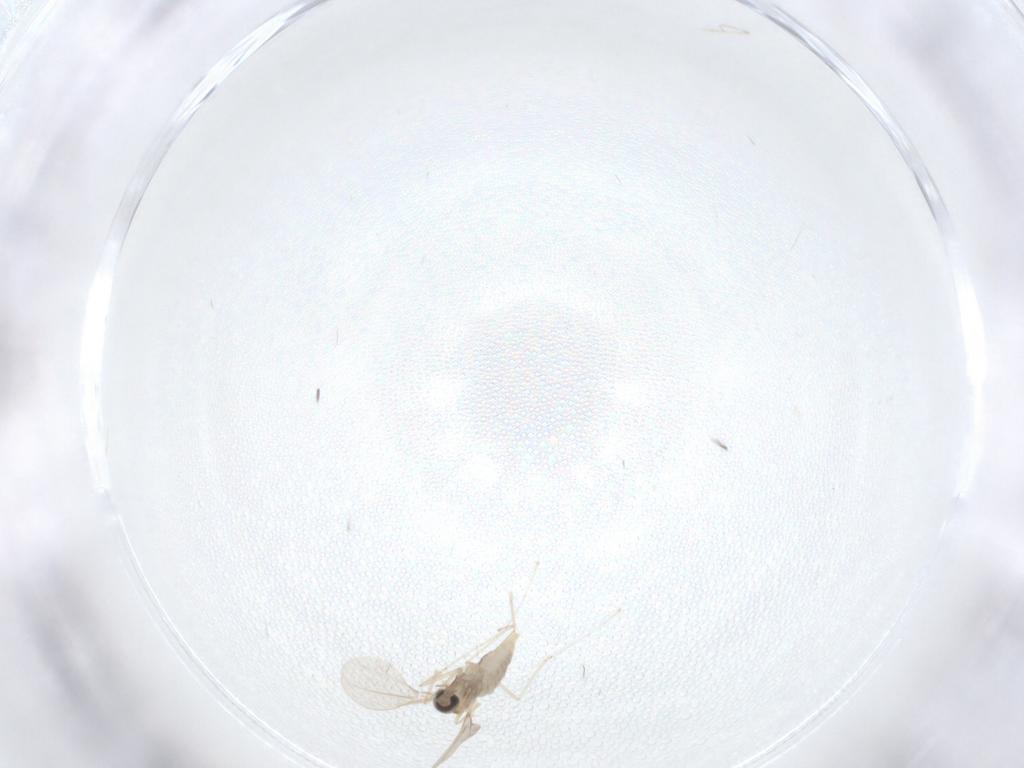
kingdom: Animalia
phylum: Arthropoda
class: Insecta
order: Diptera
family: Cecidomyiidae
